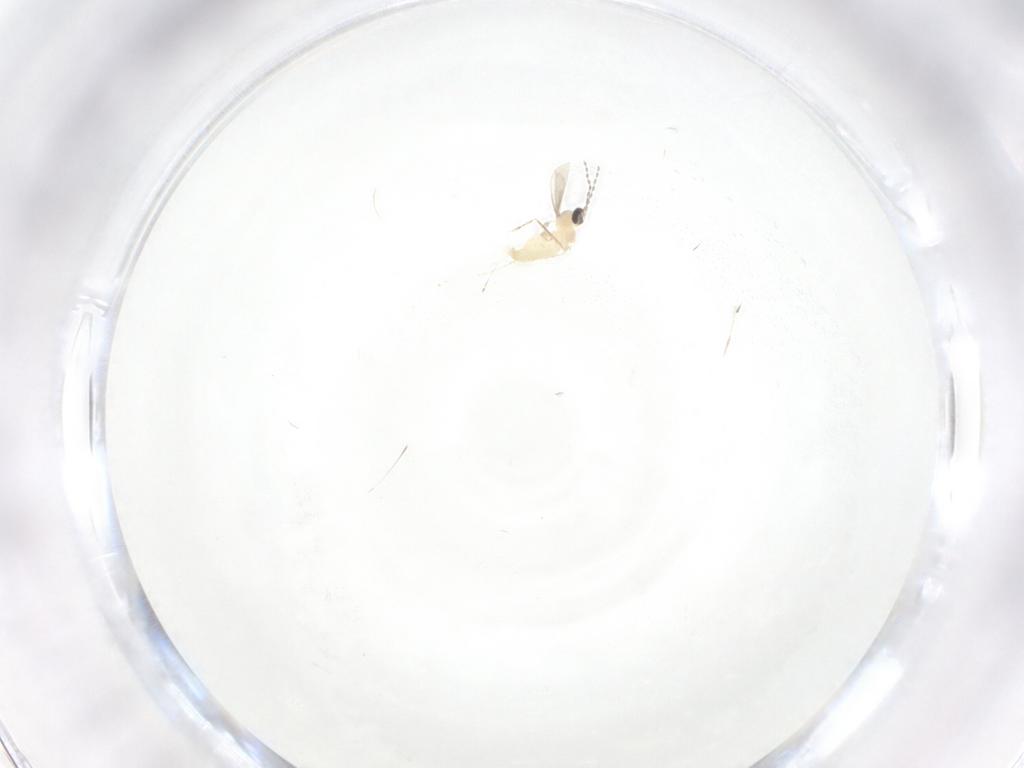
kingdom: Animalia
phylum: Arthropoda
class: Insecta
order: Diptera
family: Cecidomyiidae
